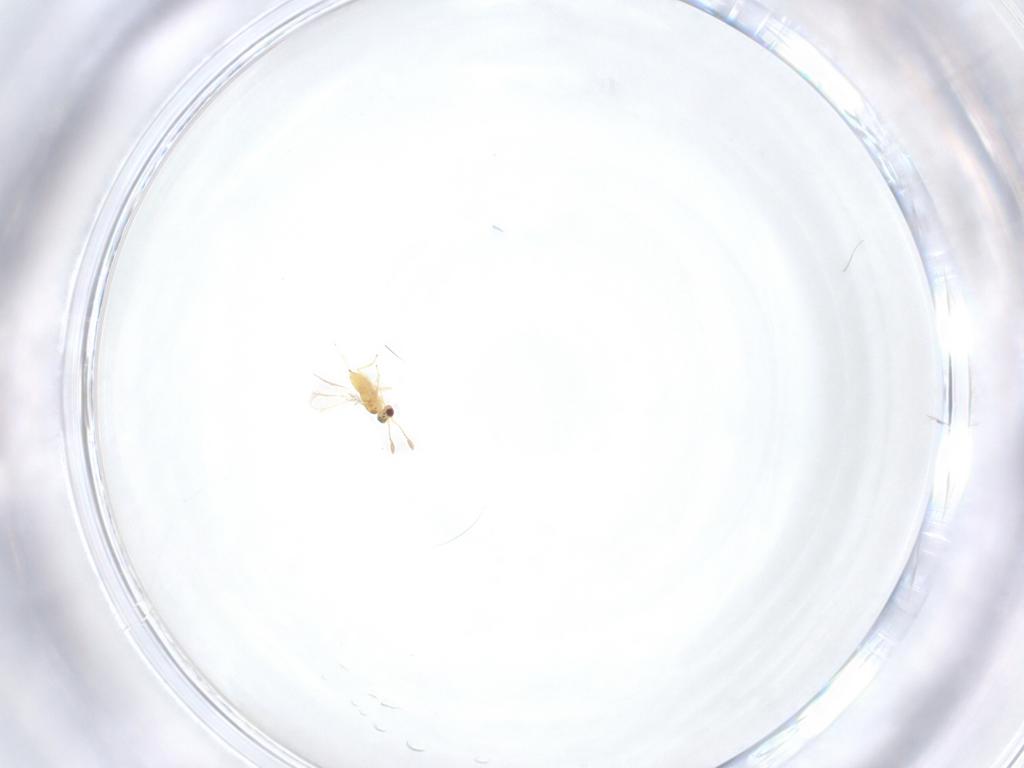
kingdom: Animalia
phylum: Arthropoda
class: Insecta
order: Hymenoptera
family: Mymaridae
